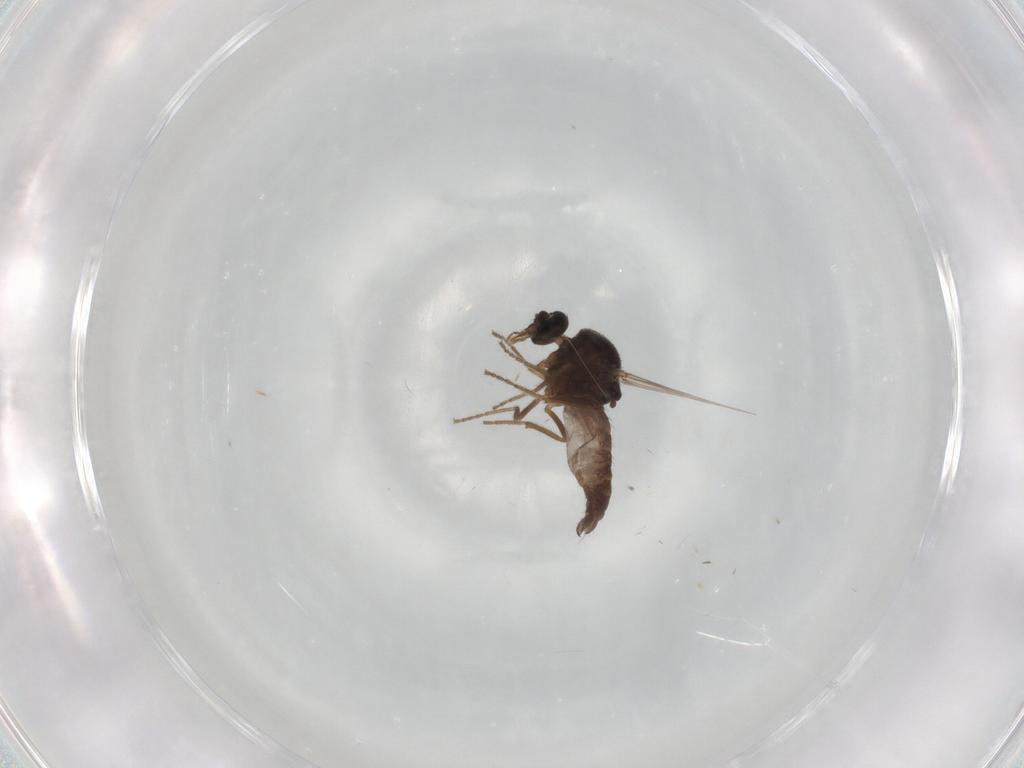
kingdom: Animalia
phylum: Arthropoda
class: Insecta
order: Diptera
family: Ceratopogonidae
